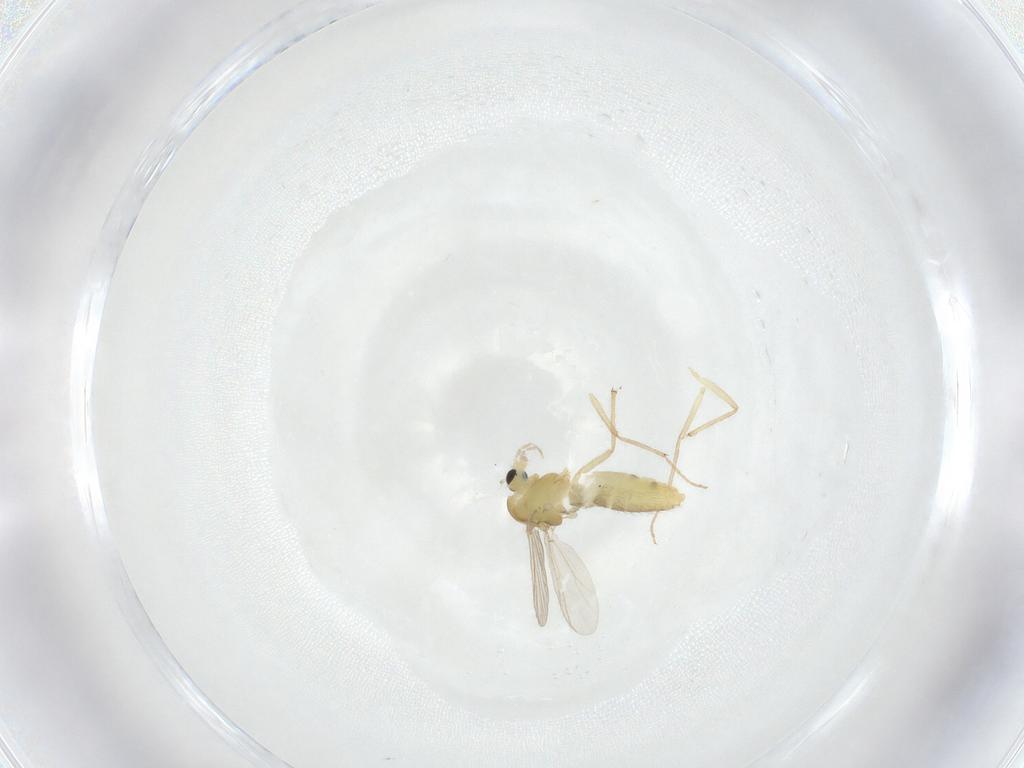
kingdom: Animalia
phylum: Arthropoda
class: Insecta
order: Diptera
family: Chironomidae
